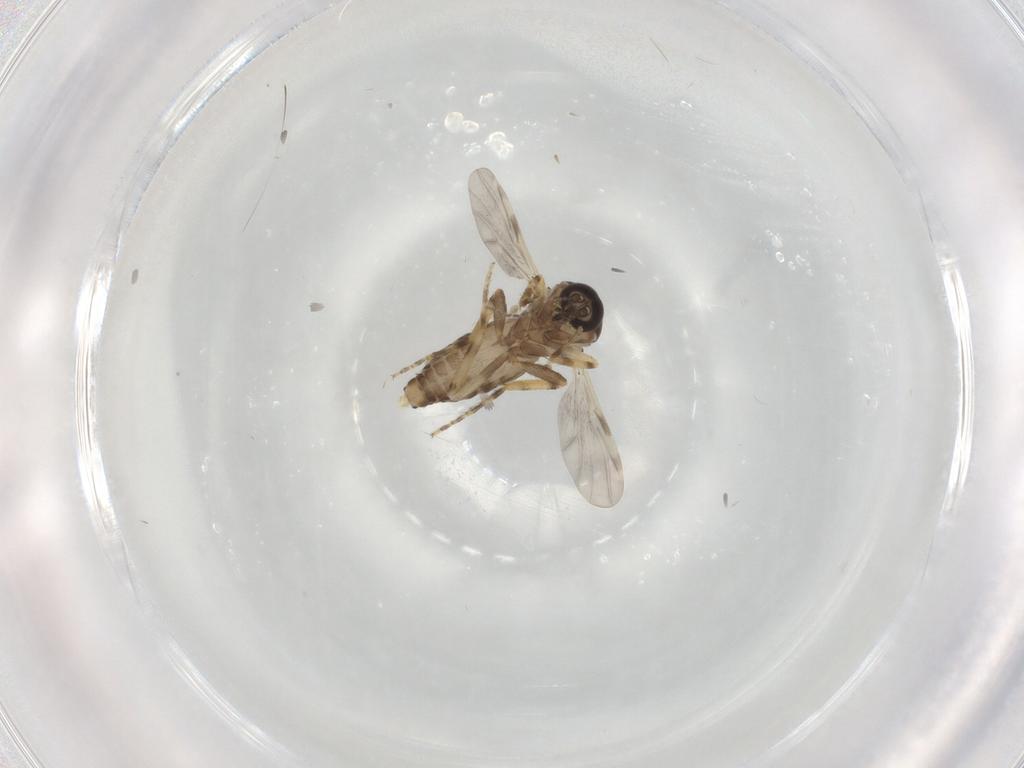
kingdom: Animalia
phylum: Arthropoda
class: Insecta
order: Diptera
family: Ceratopogonidae
